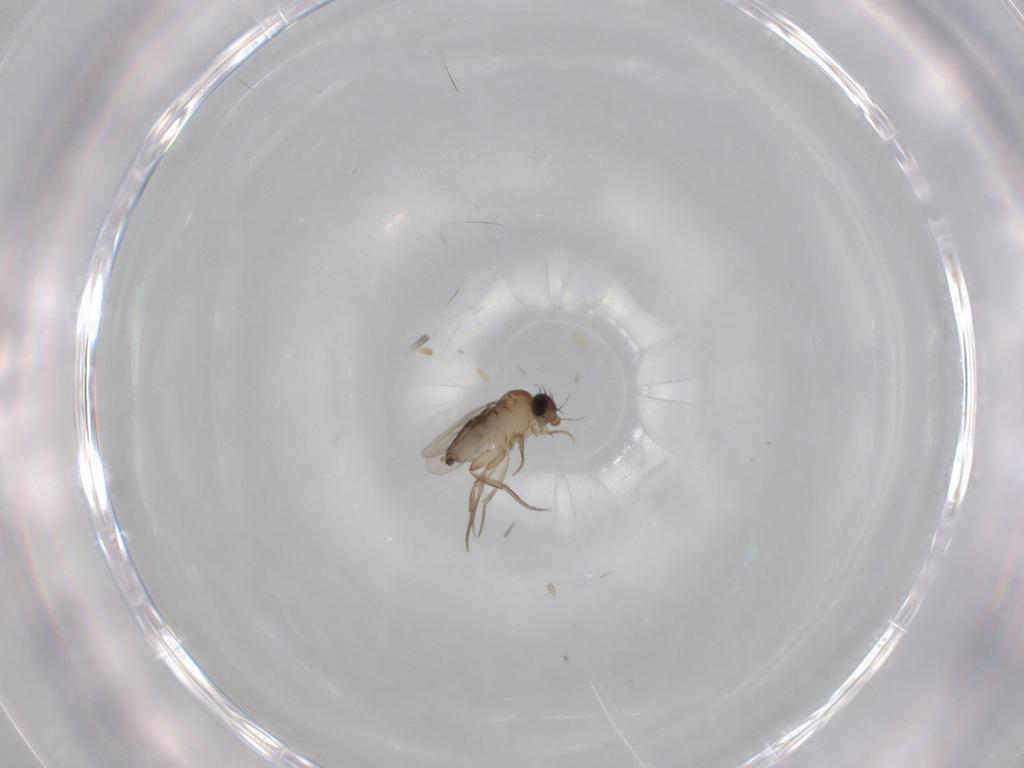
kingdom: Animalia
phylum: Arthropoda
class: Insecta
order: Diptera
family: Phoridae
